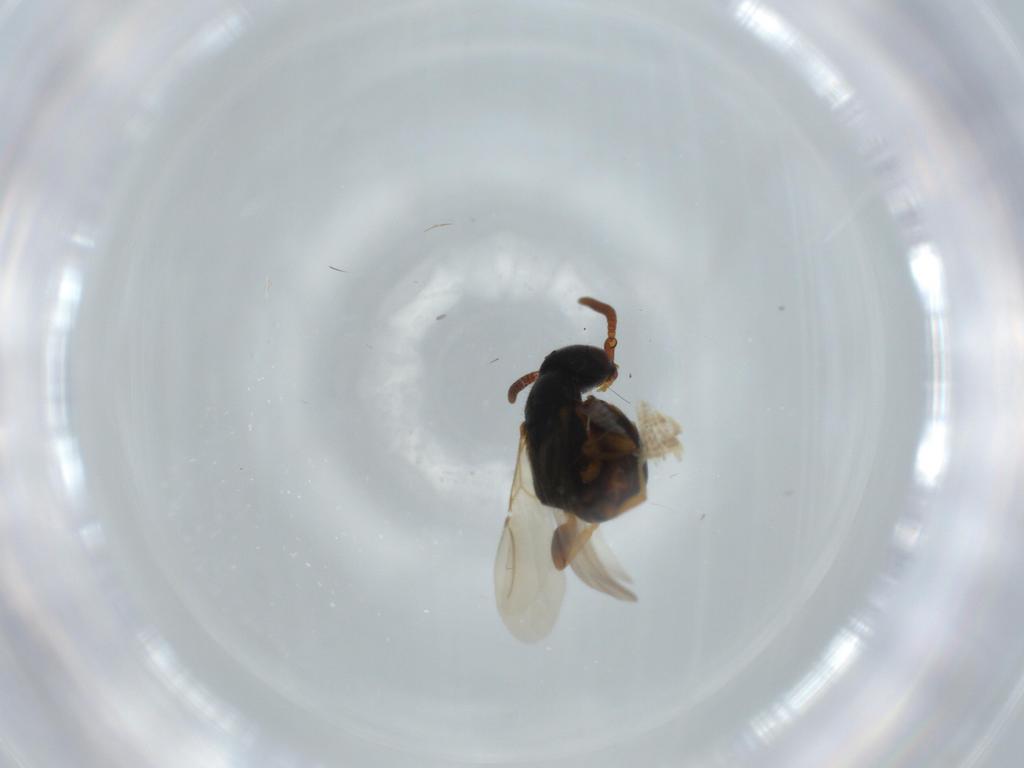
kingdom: Animalia
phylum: Arthropoda
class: Insecta
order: Hymenoptera
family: Bethylidae
